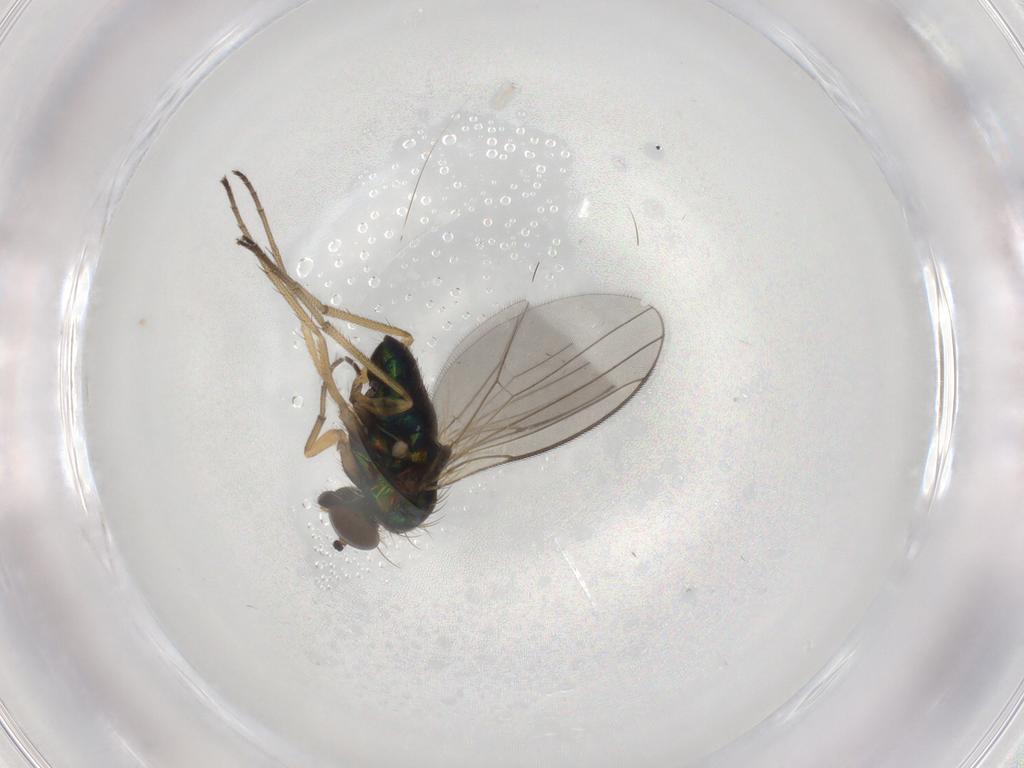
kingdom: Animalia
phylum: Arthropoda
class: Insecta
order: Diptera
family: Dolichopodidae
